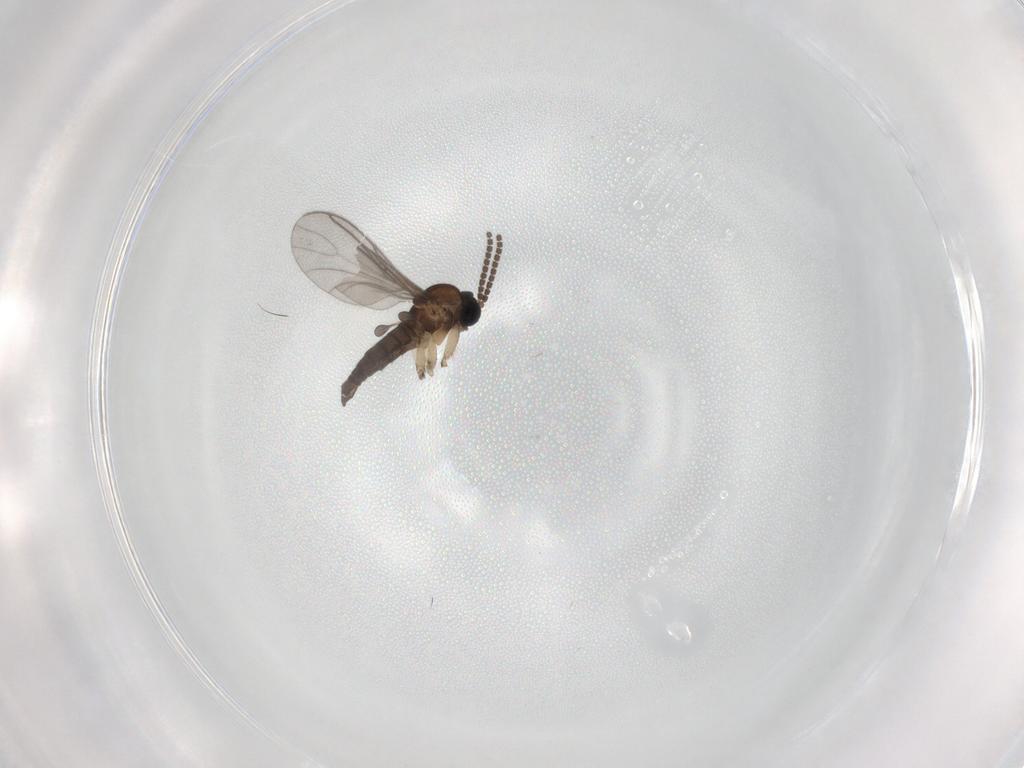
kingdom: Animalia
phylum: Arthropoda
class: Insecta
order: Diptera
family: Sciaridae
